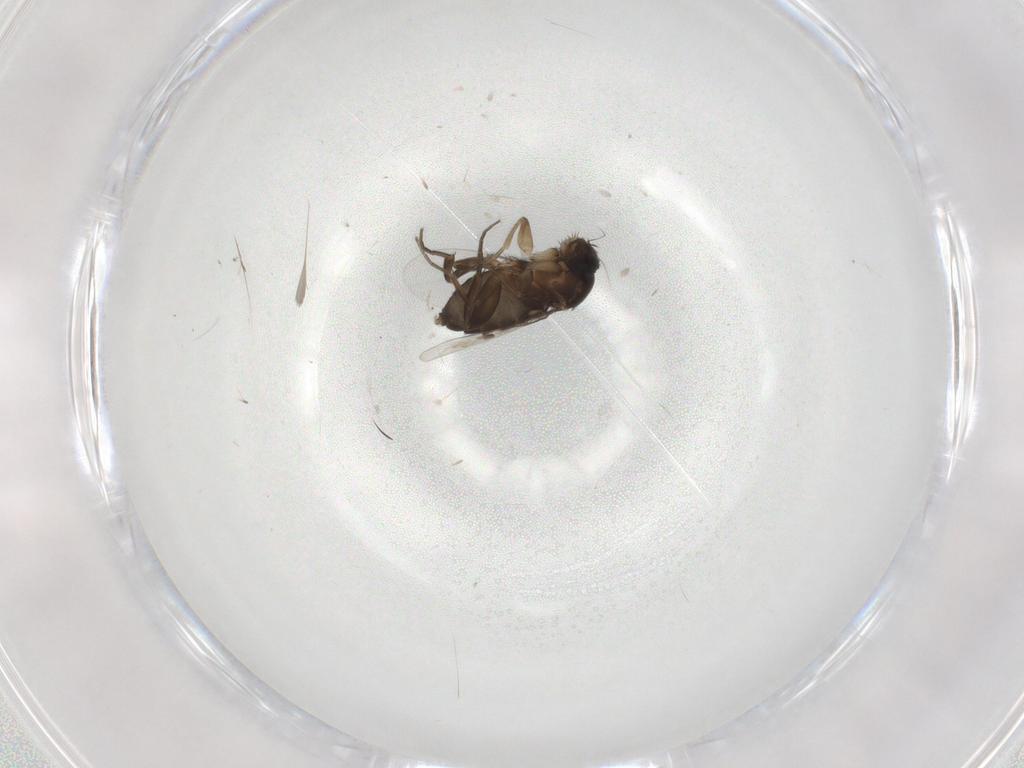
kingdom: Animalia
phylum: Arthropoda
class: Insecta
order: Diptera
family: Phoridae
